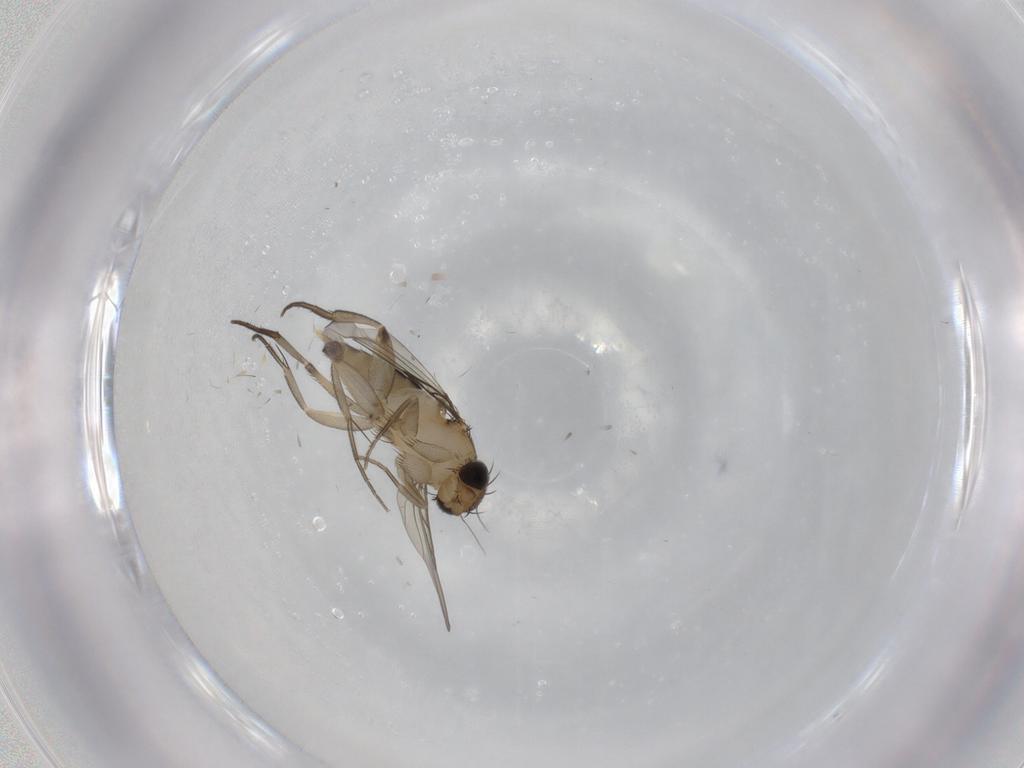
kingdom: Animalia
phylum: Arthropoda
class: Insecta
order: Diptera
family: Phoridae
